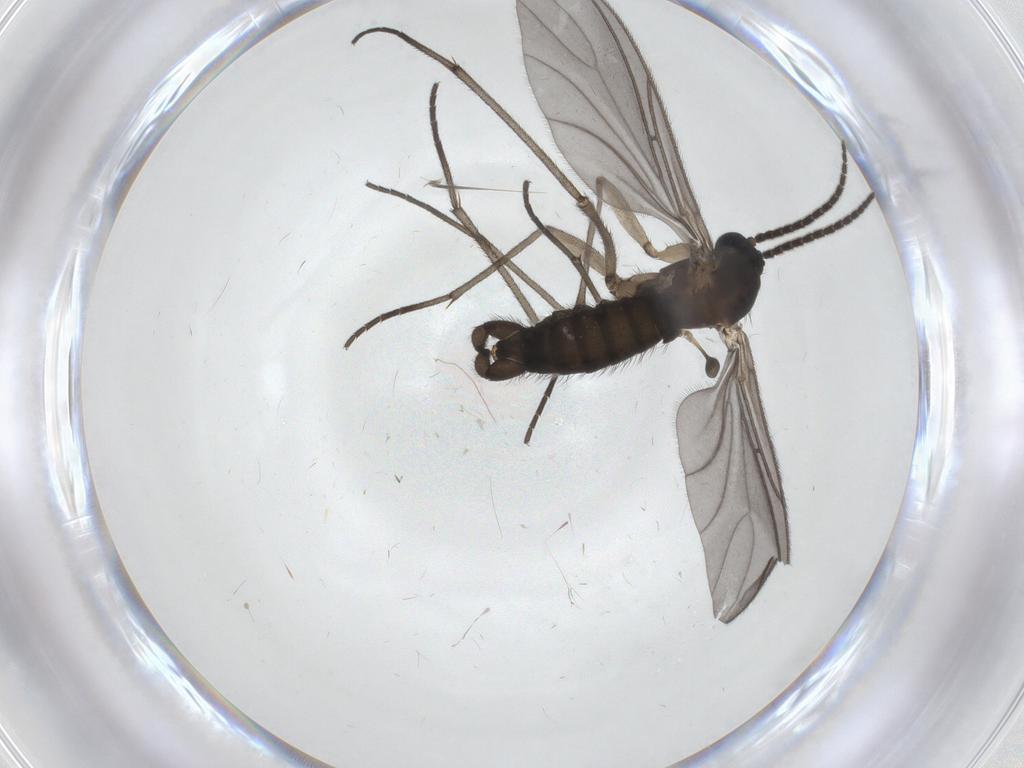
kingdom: Animalia
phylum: Arthropoda
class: Insecta
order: Diptera
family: Sciaridae
